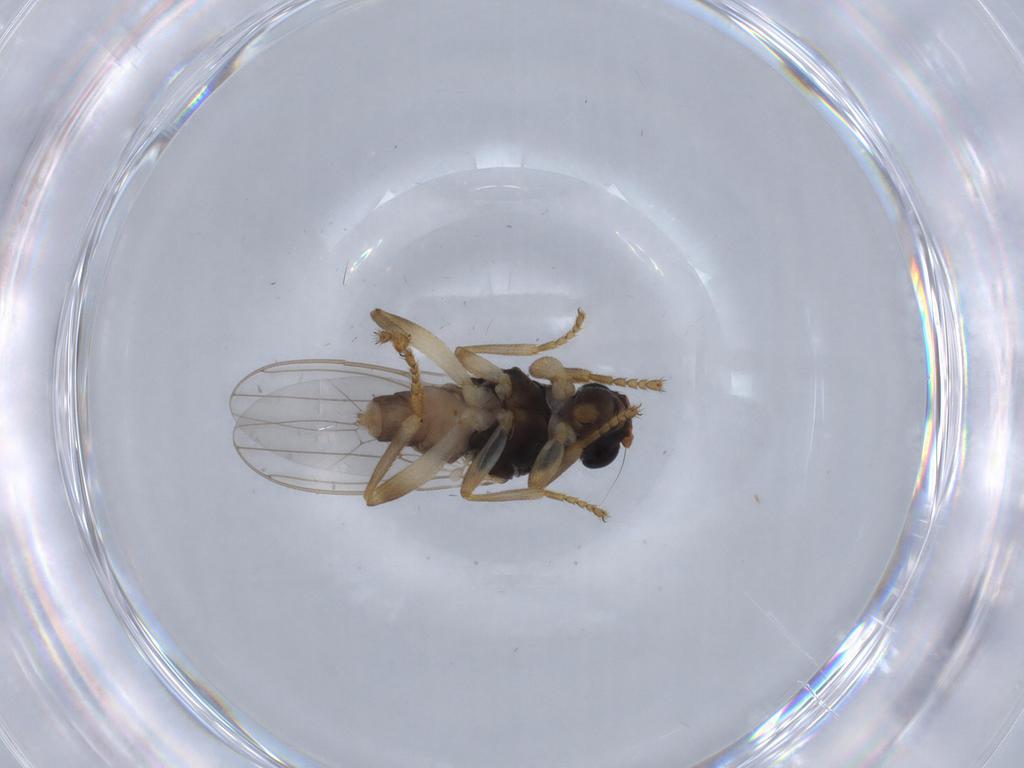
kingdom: Animalia
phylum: Arthropoda
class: Insecta
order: Diptera
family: Sphaeroceridae
